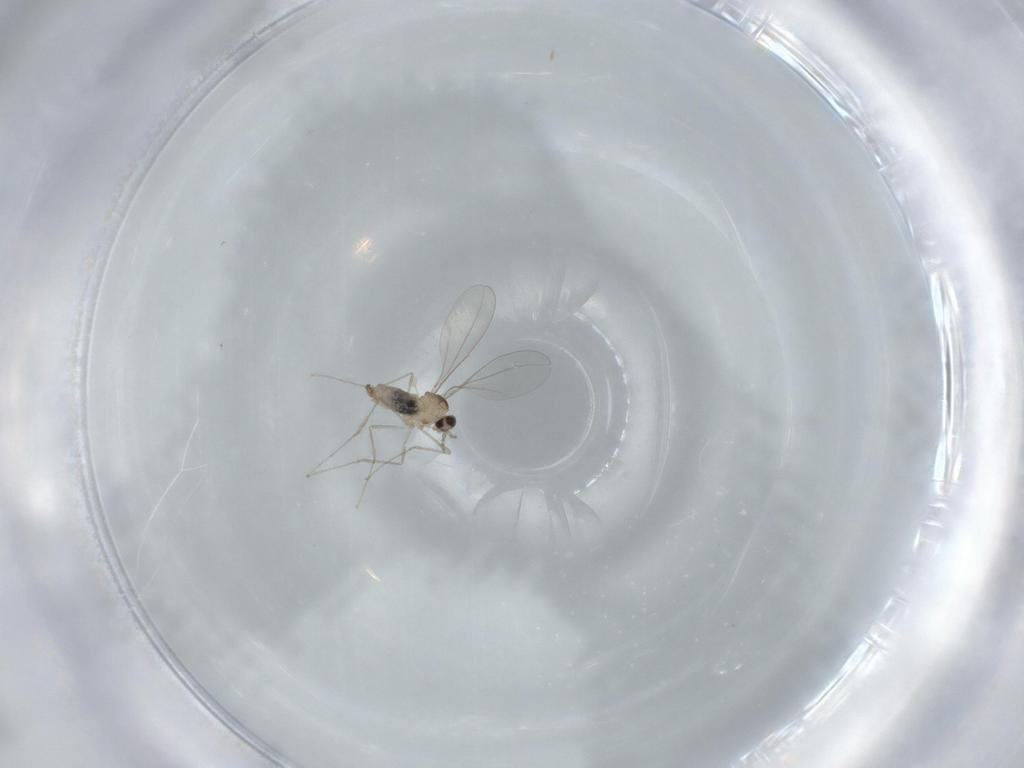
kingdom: Animalia
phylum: Arthropoda
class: Insecta
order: Diptera
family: Cecidomyiidae
